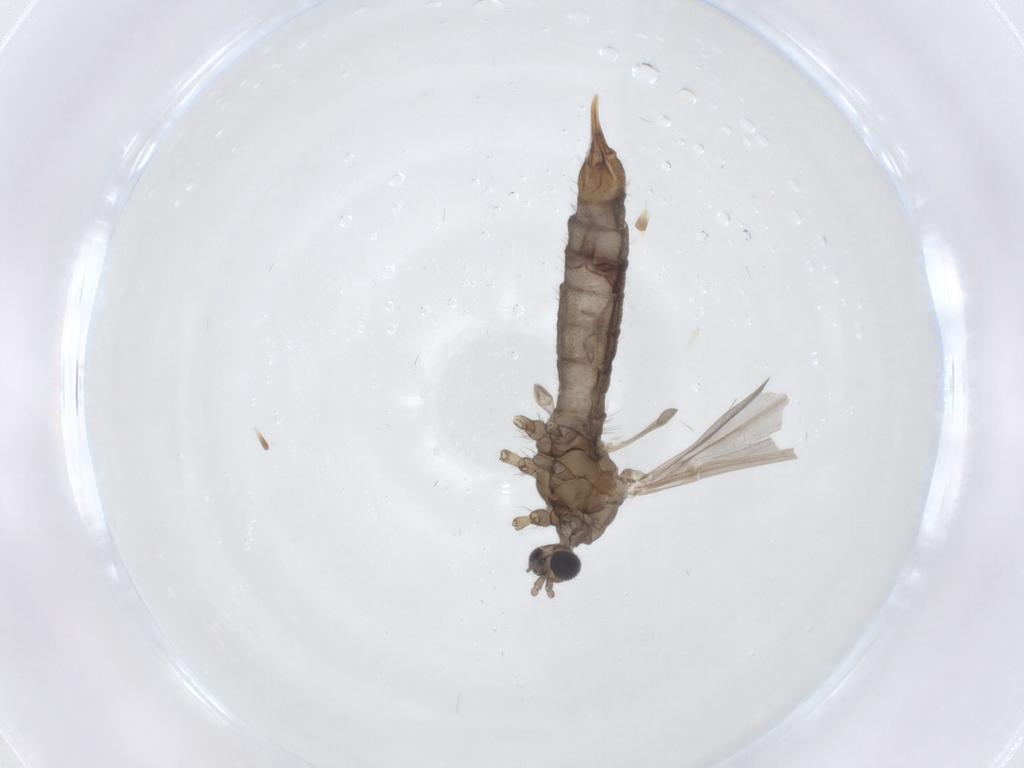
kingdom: Animalia
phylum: Arthropoda
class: Insecta
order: Diptera
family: Limoniidae
